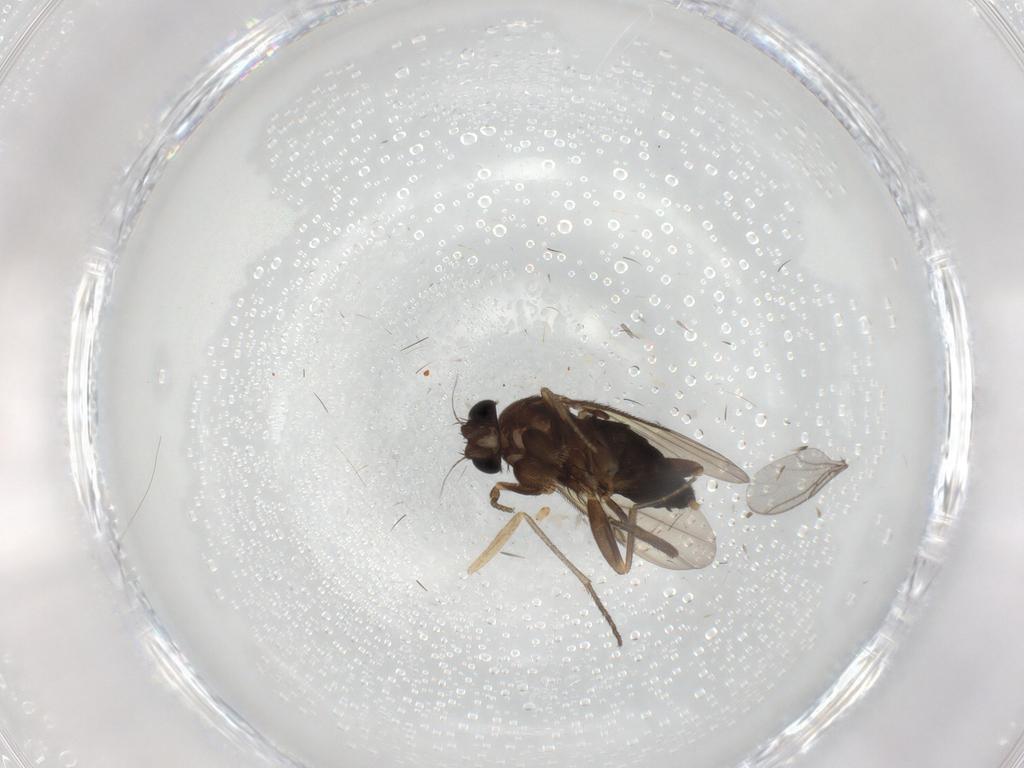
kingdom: Animalia
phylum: Arthropoda
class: Insecta
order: Diptera
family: Phoridae
